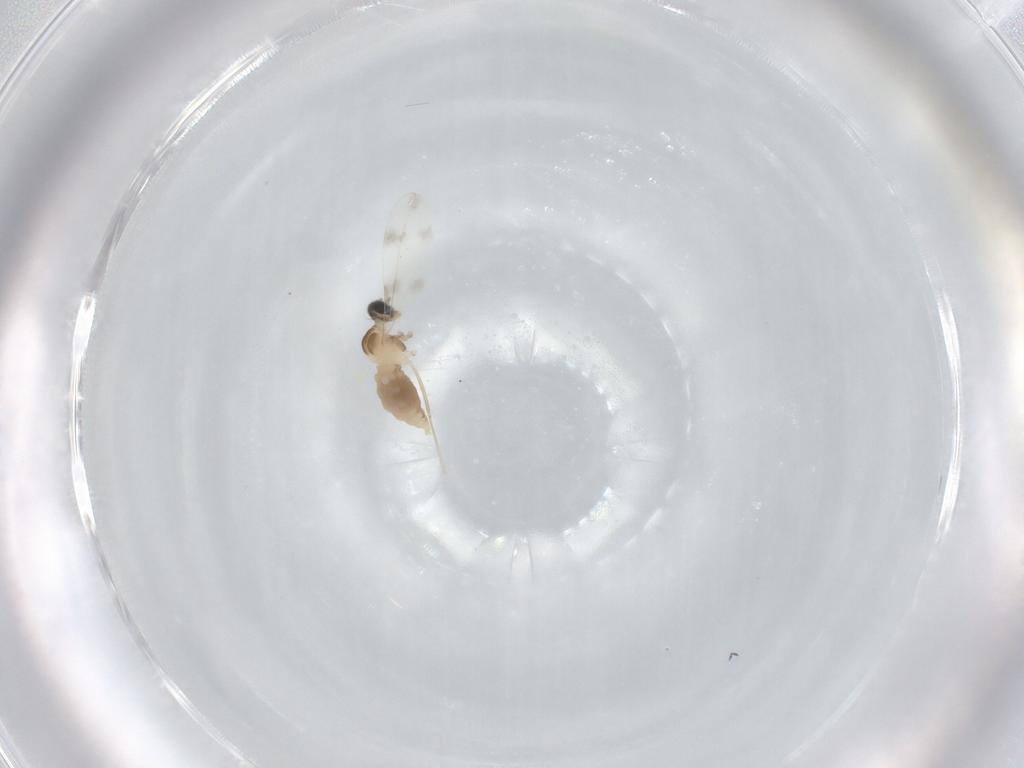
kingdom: Animalia
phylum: Arthropoda
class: Insecta
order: Diptera
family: Cecidomyiidae
